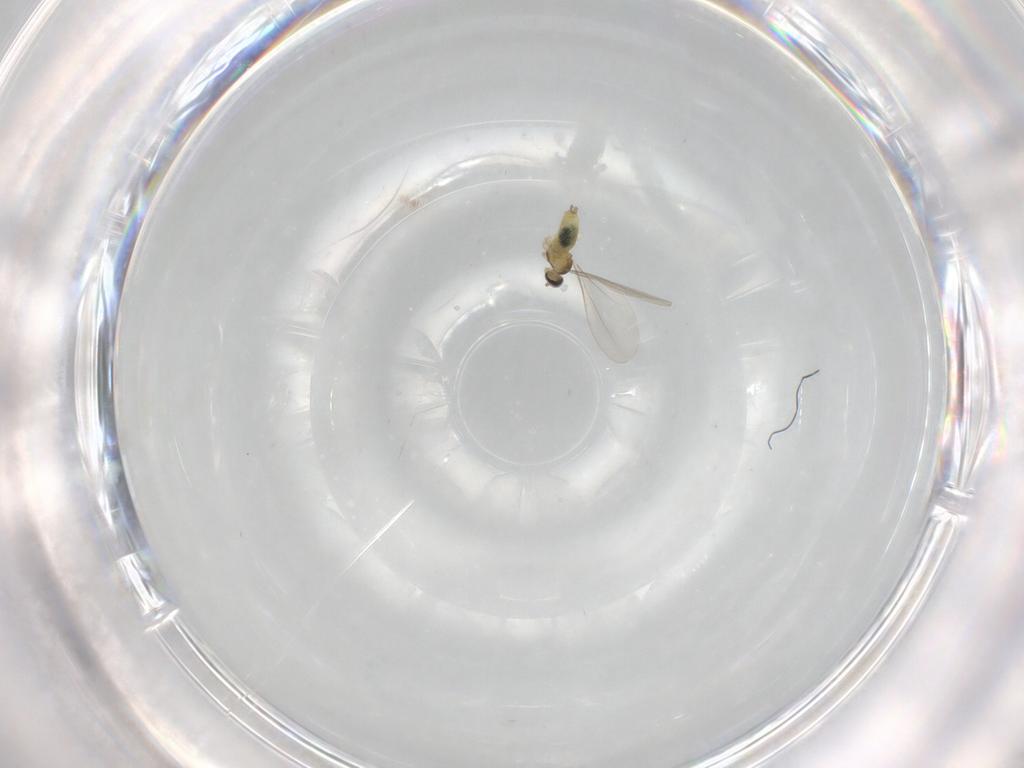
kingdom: Animalia
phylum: Arthropoda
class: Insecta
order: Diptera
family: Cecidomyiidae
